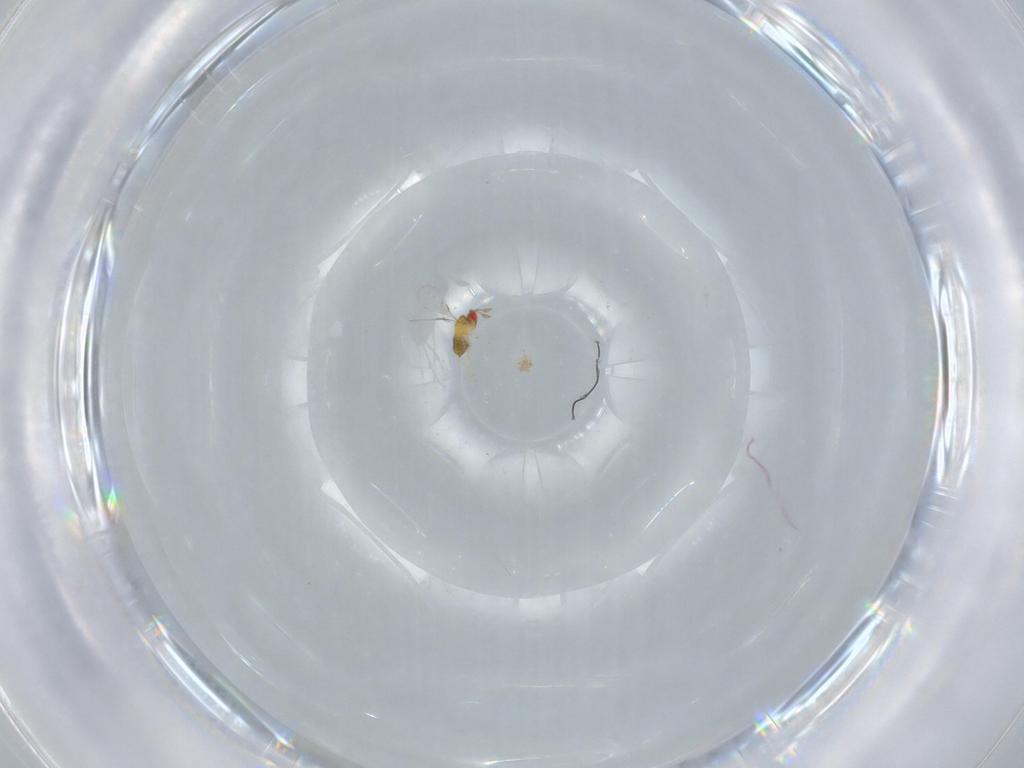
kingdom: Animalia
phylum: Arthropoda
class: Insecta
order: Hymenoptera
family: Trichogrammatidae
